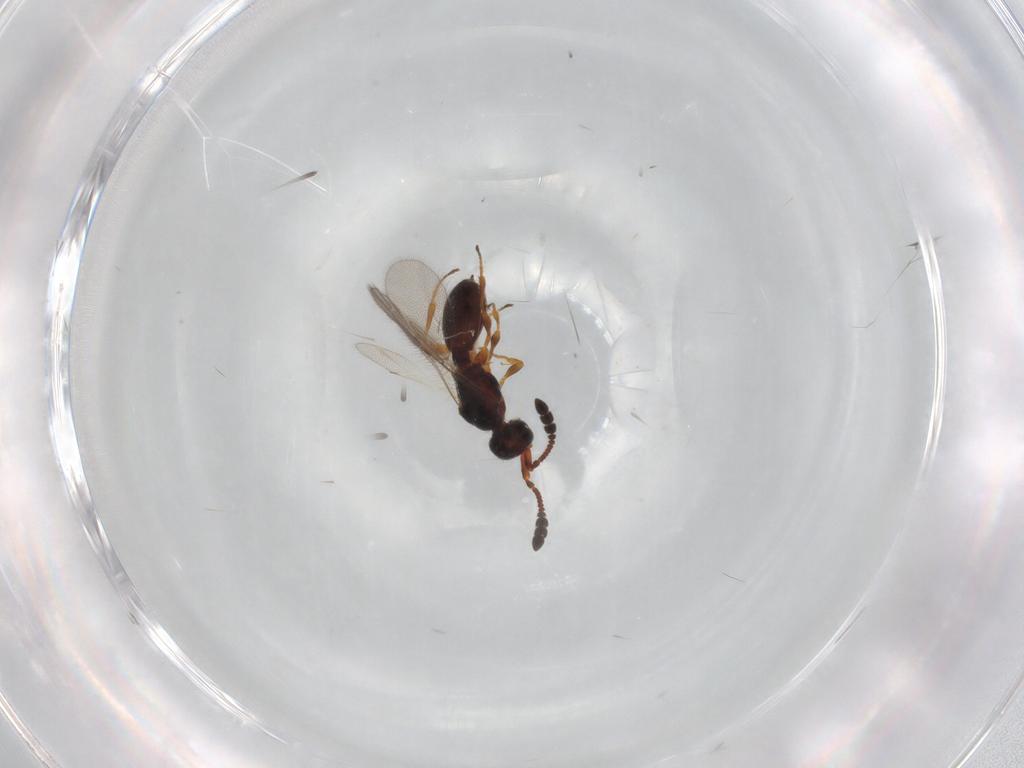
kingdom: Animalia
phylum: Arthropoda
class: Insecta
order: Hymenoptera
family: Diapriidae
